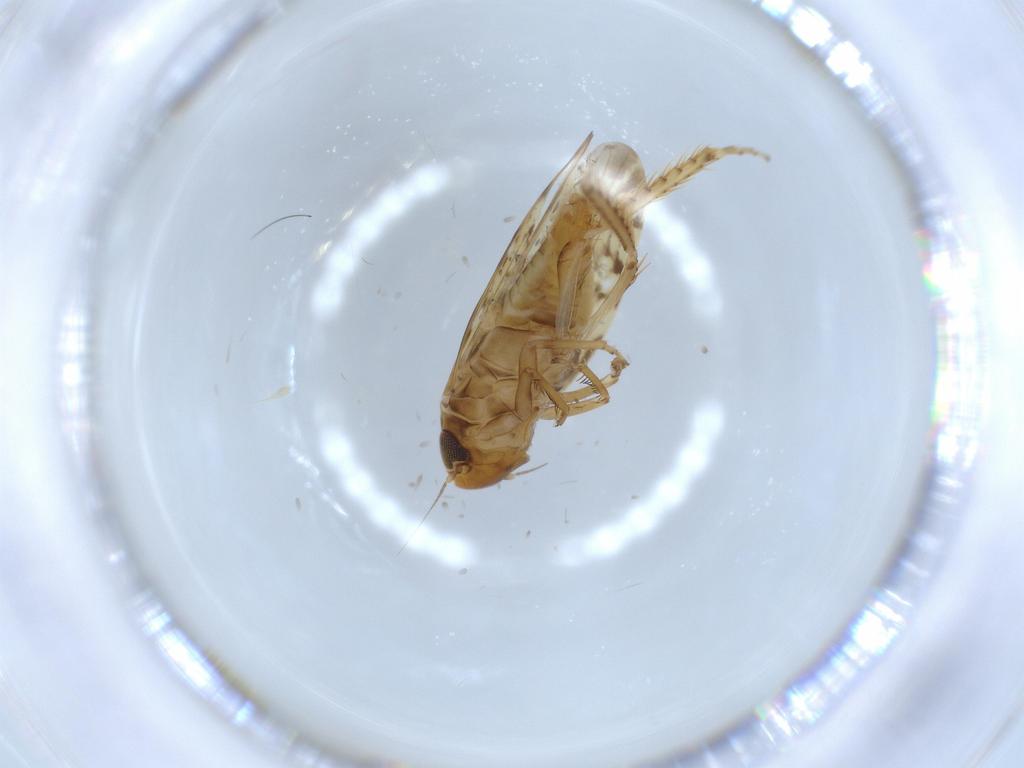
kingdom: Animalia
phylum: Arthropoda
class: Insecta
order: Hemiptera
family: Cicadellidae
